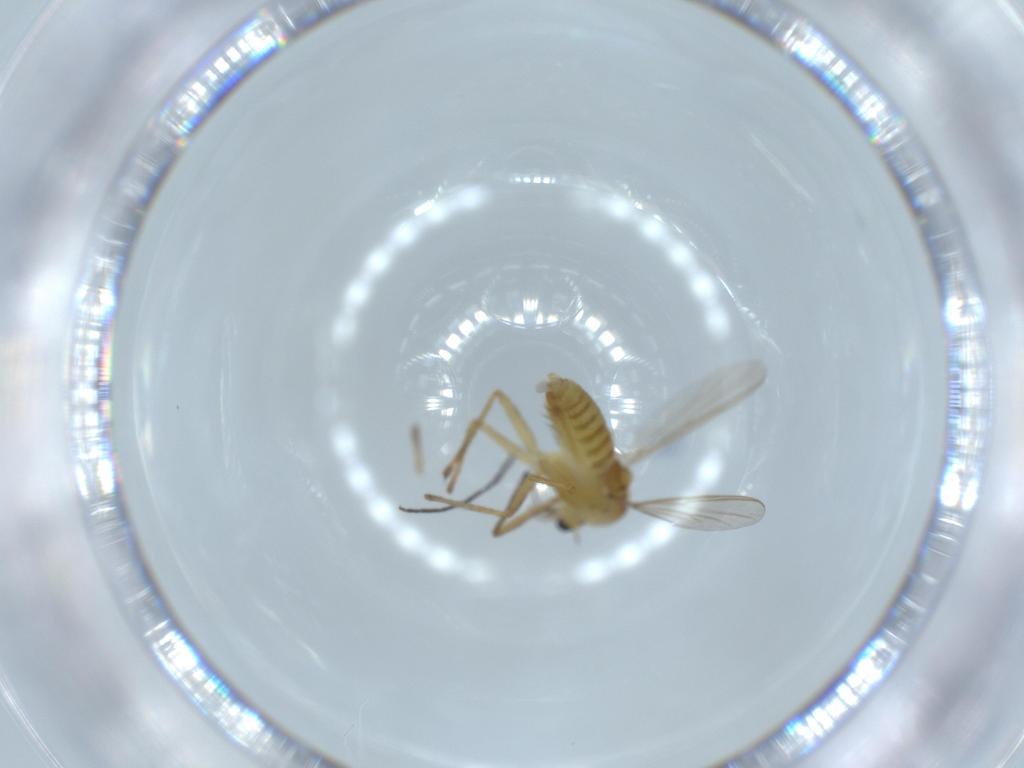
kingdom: Animalia
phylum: Arthropoda
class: Insecta
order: Diptera
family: Chironomidae
